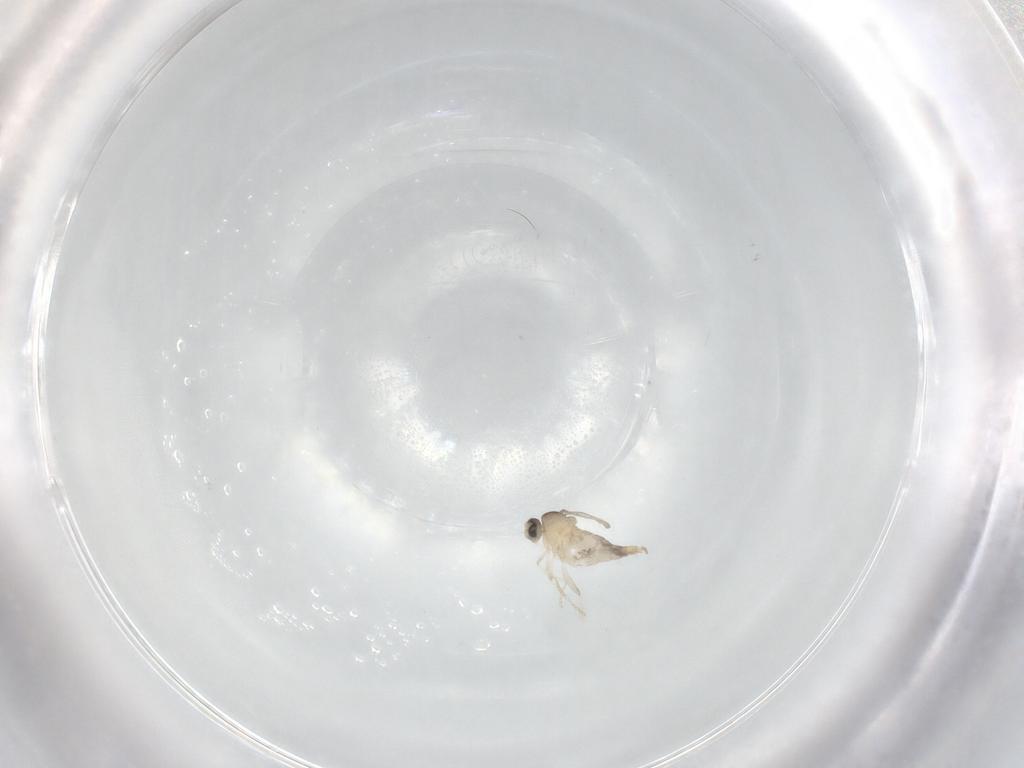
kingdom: Animalia
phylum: Arthropoda
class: Insecta
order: Diptera
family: Cecidomyiidae
